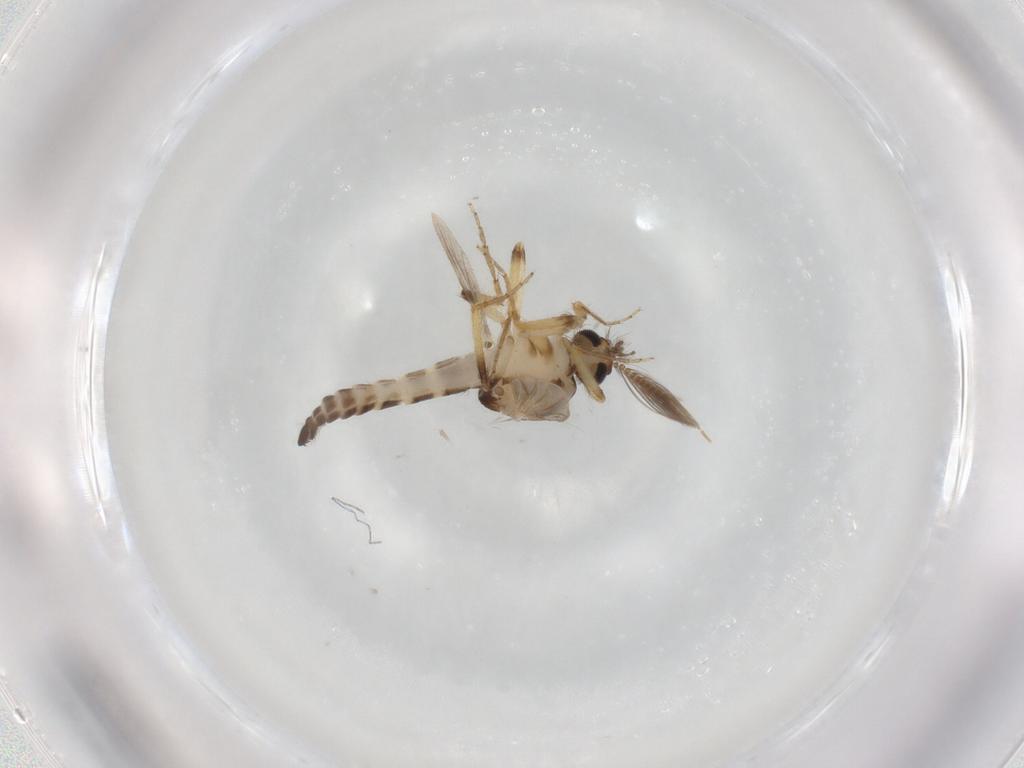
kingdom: Animalia
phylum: Arthropoda
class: Insecta
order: Diptera
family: Ceratopogonidae
